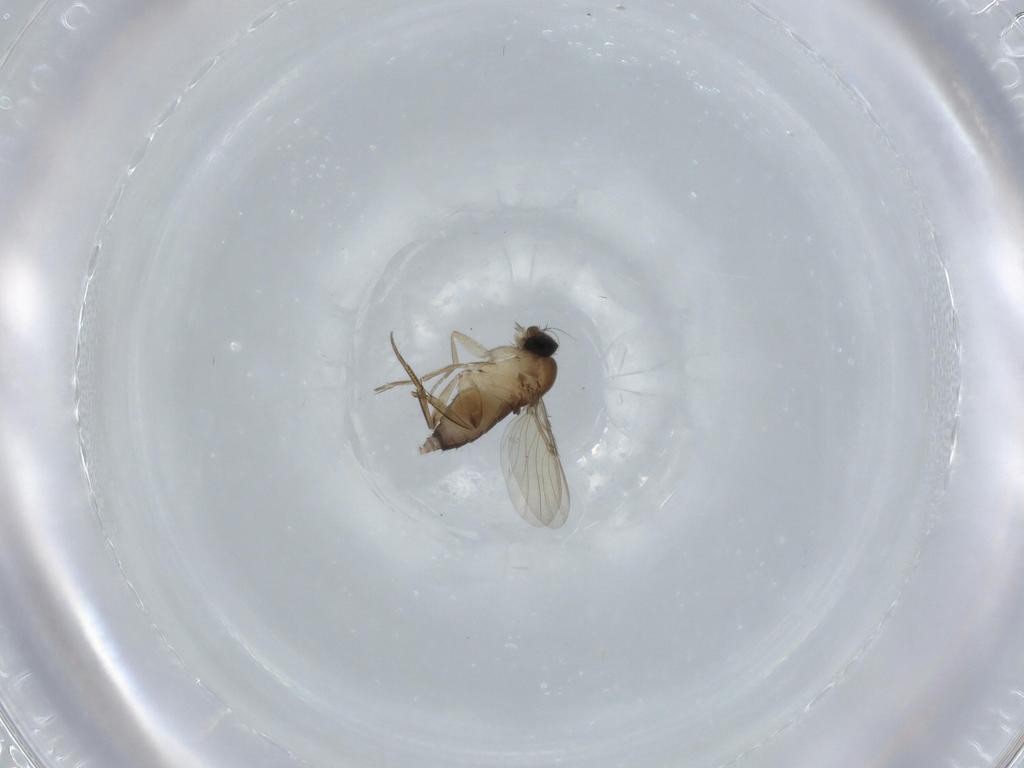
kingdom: Animalia
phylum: Arthropoda
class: Insecta
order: Diptera
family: Phoridae
